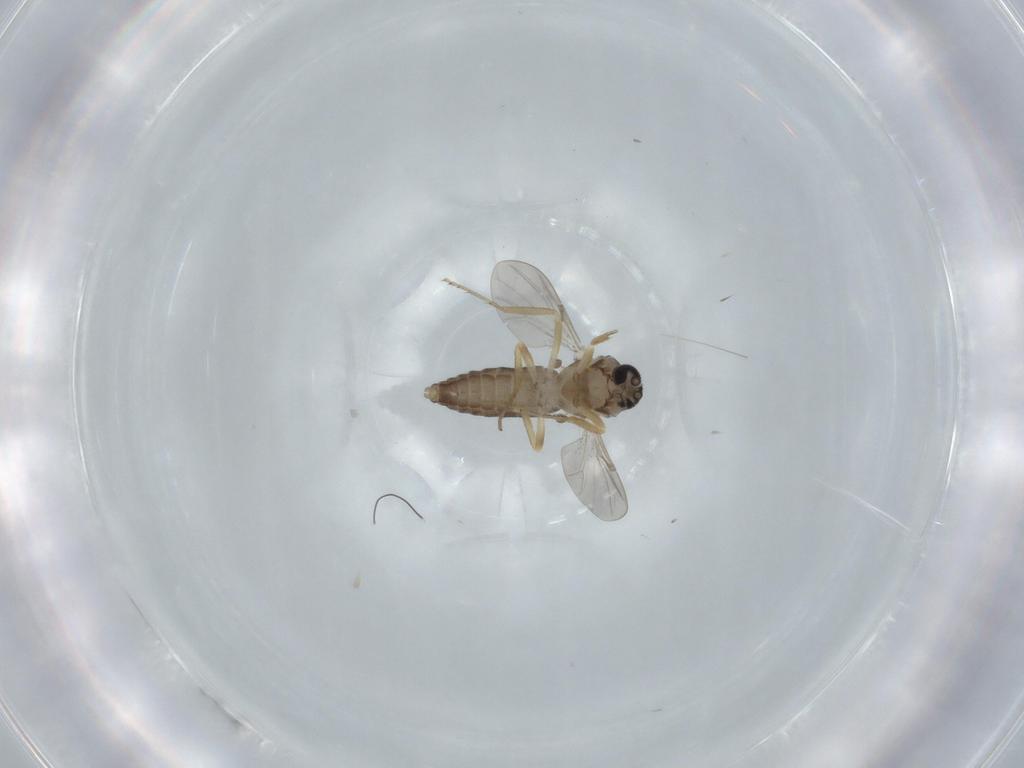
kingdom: Animalia
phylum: Arthropoda
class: Insecta
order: Diptera
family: Ceratopogonidae
